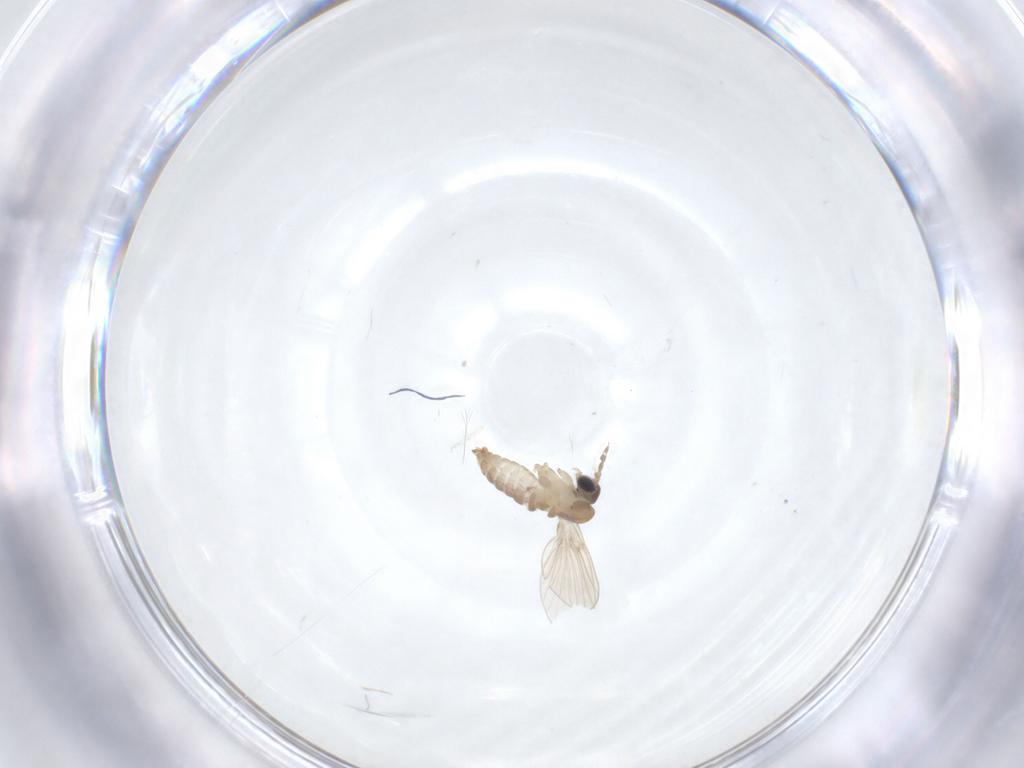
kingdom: Animalia
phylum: Arthropoda
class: Insecta
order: Diptera
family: Psychodidae
